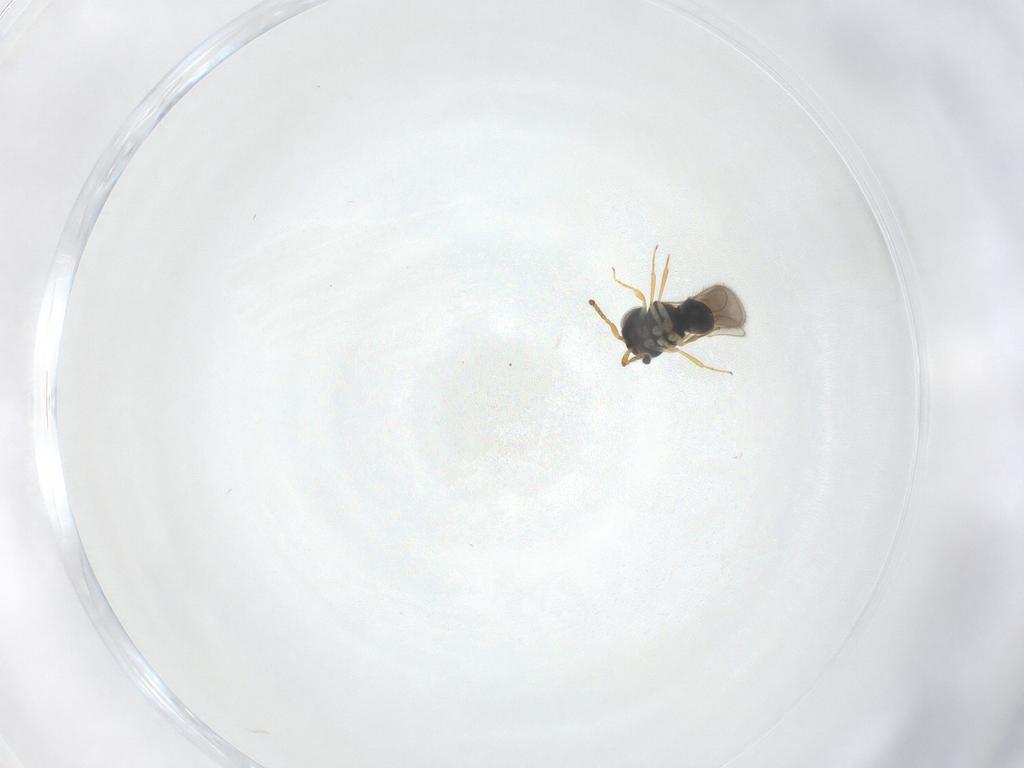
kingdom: Animalia
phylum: Arthropoda
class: Insecta
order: Hymenoptera
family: Scelionidae
